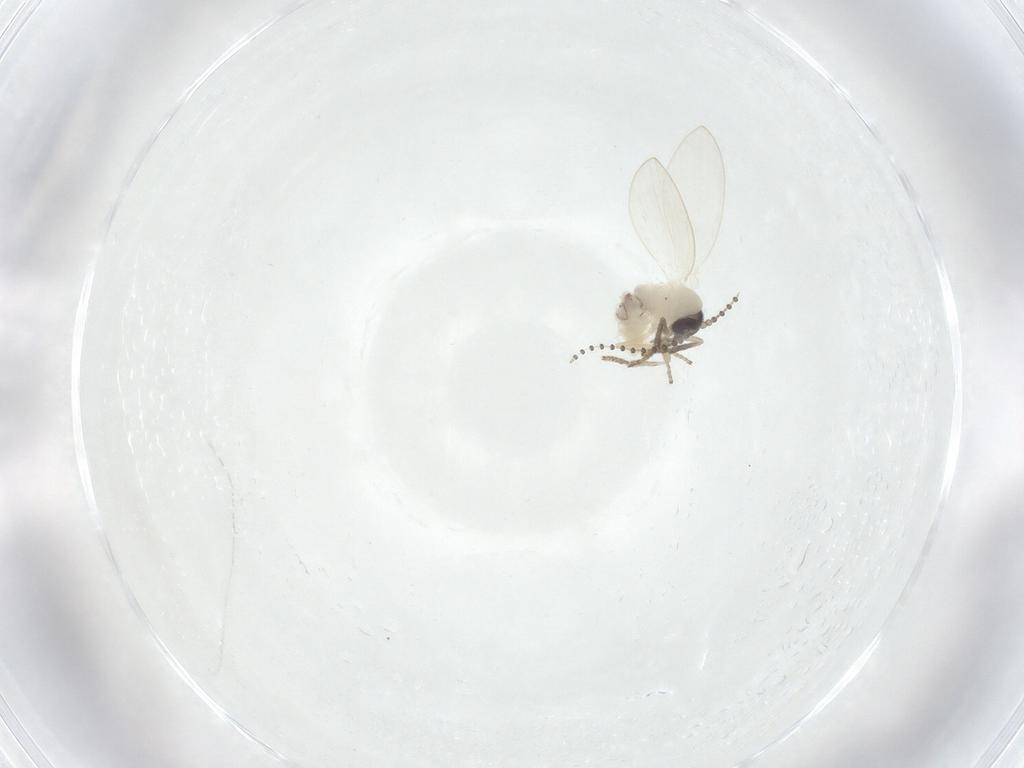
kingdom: Animalia
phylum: Arthropoda
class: Insecta
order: Diptera
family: Psychodidae
